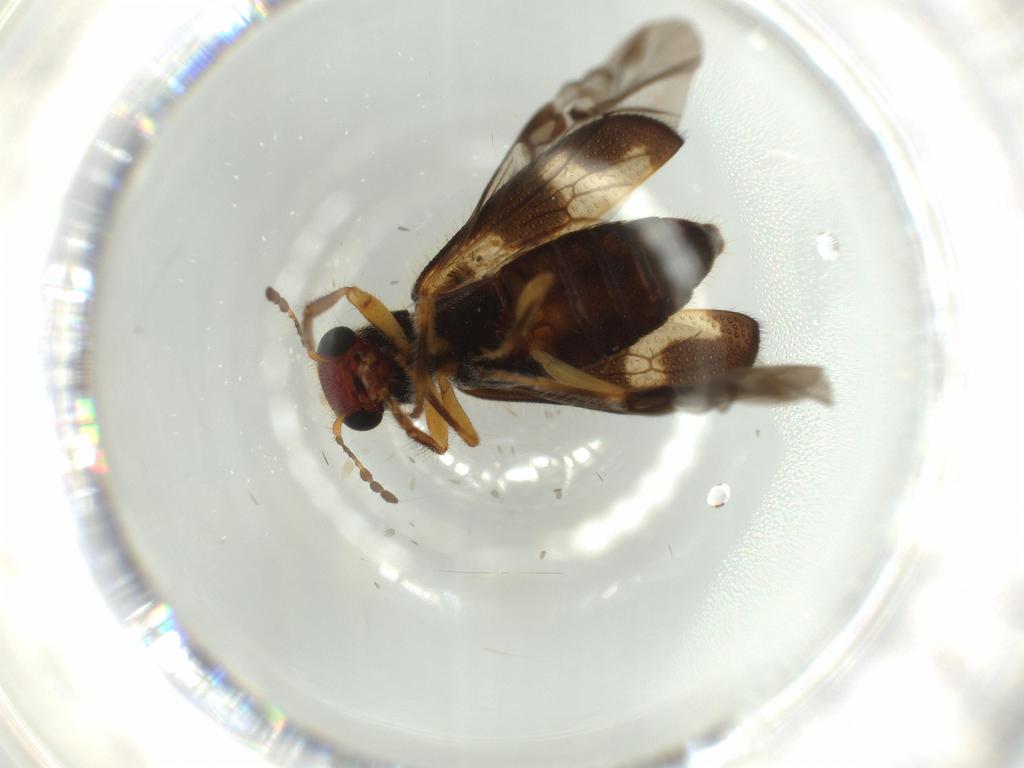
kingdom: Animalia
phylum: Arthropoda
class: Insecta
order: Coleoptera
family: Cleridae
